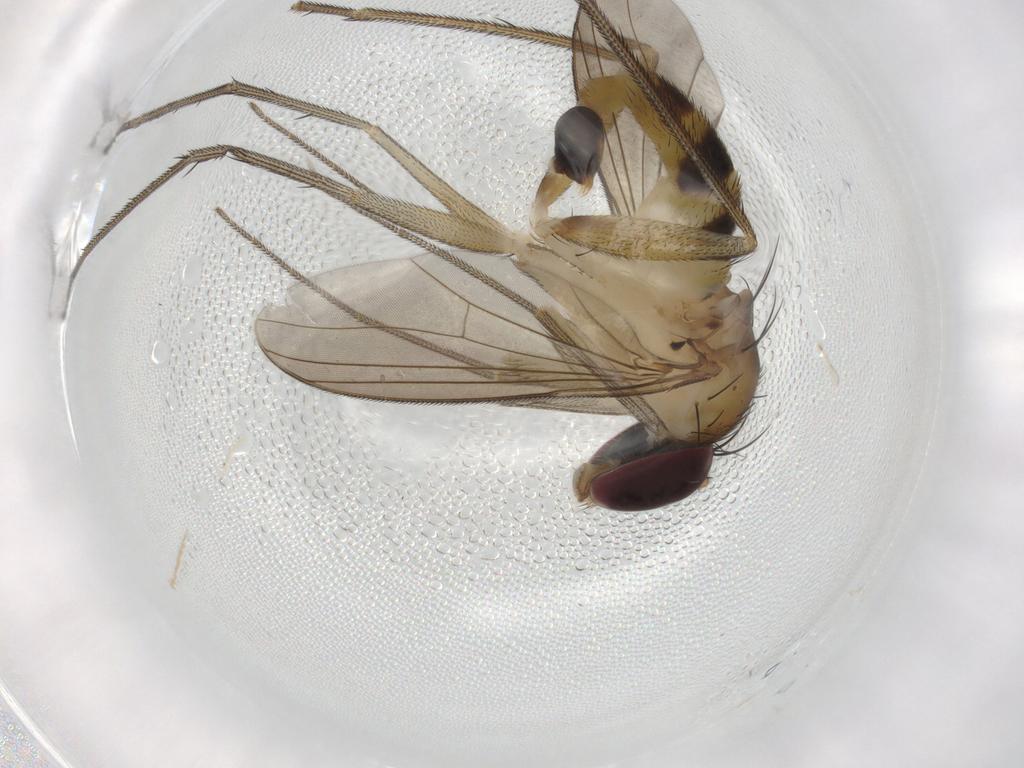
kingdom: Animalia
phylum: Arthropoda
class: Insecta
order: Diptera
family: Dolichopodidae
